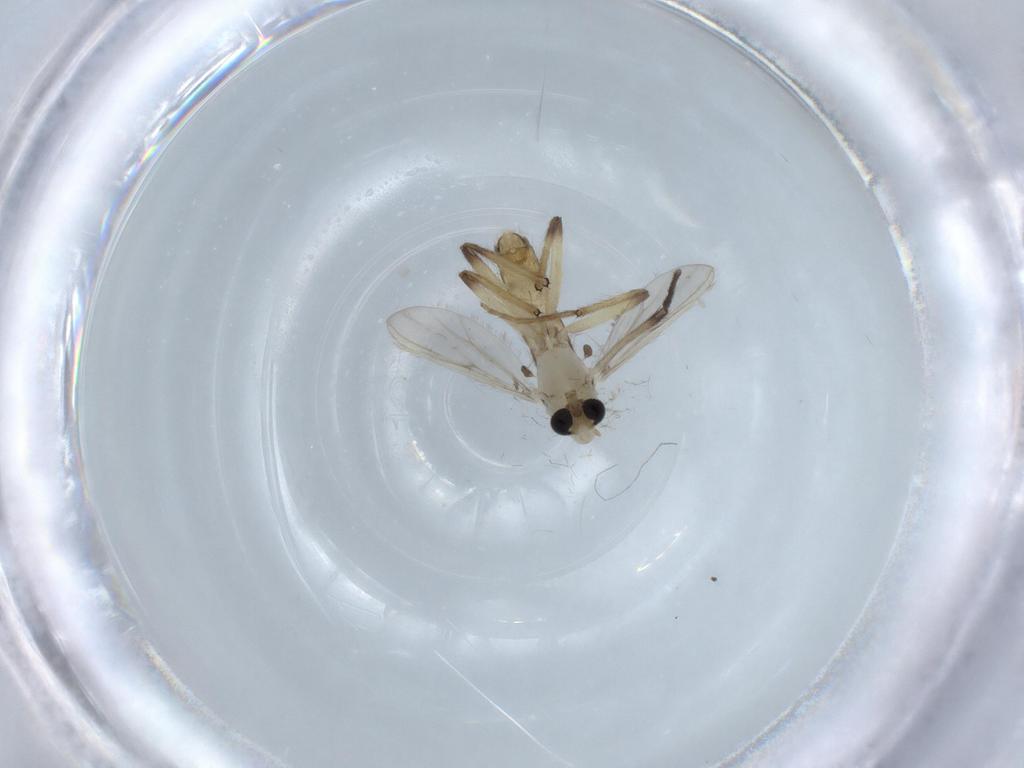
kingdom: Animalia
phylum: Arthropoda
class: Insecta
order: Diptera
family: Chironomidae
